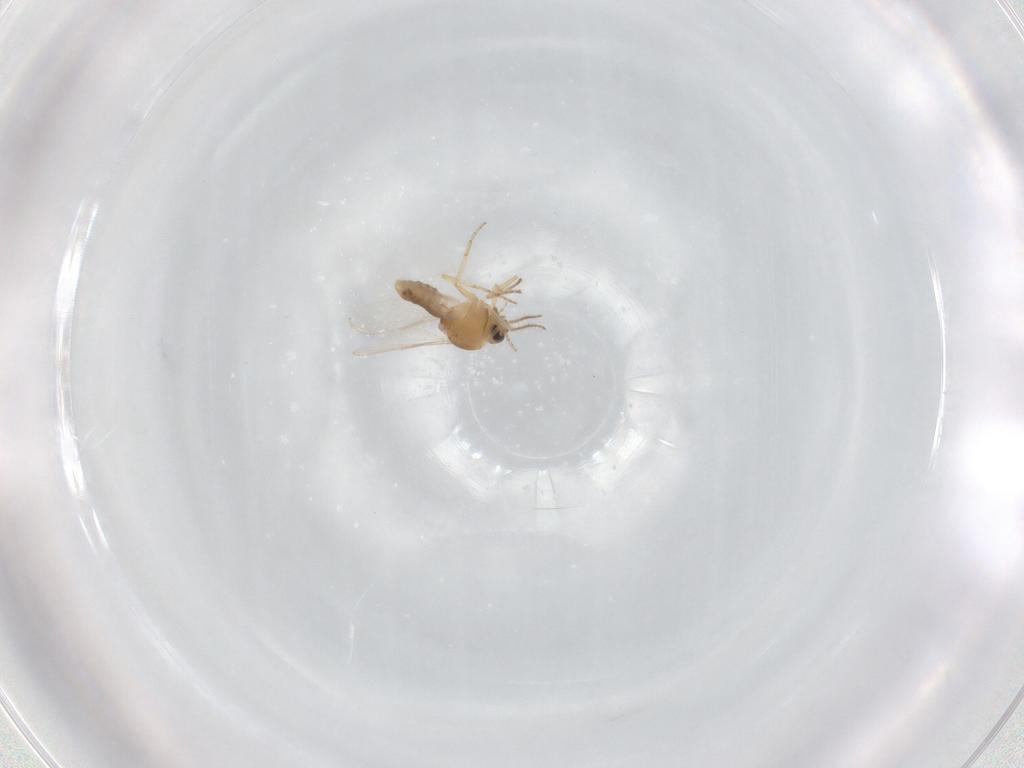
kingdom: Animalia
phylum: Arthropoda
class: Insecta
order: Diptera
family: Ceratopogonidae
